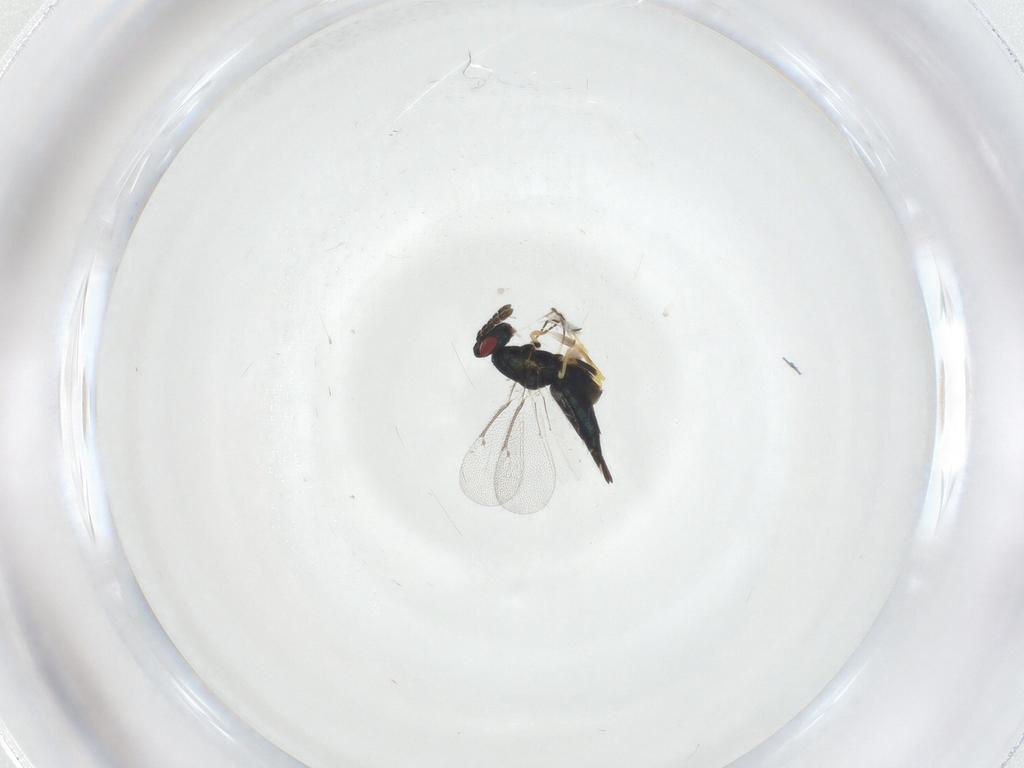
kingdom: Animalia
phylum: Arthropoda
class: Insecta
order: Hymenoptera
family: Eulophidae
